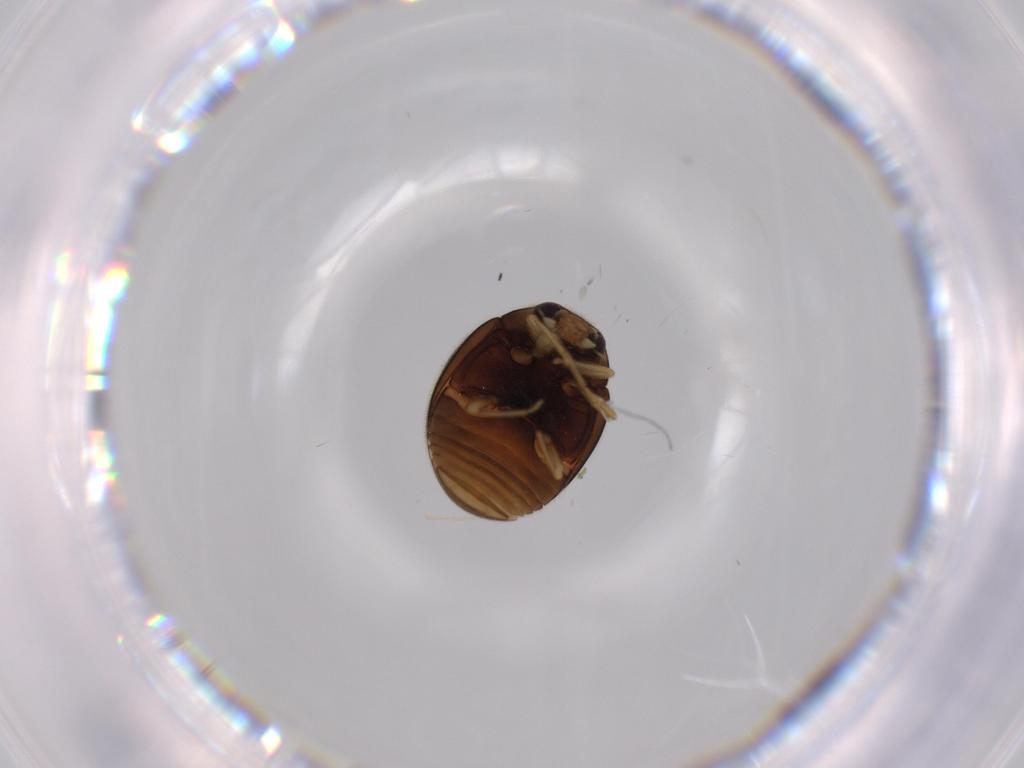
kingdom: Animalia
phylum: Arthropoda
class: Insecta
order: Coleoptera
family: Coccinellidae
